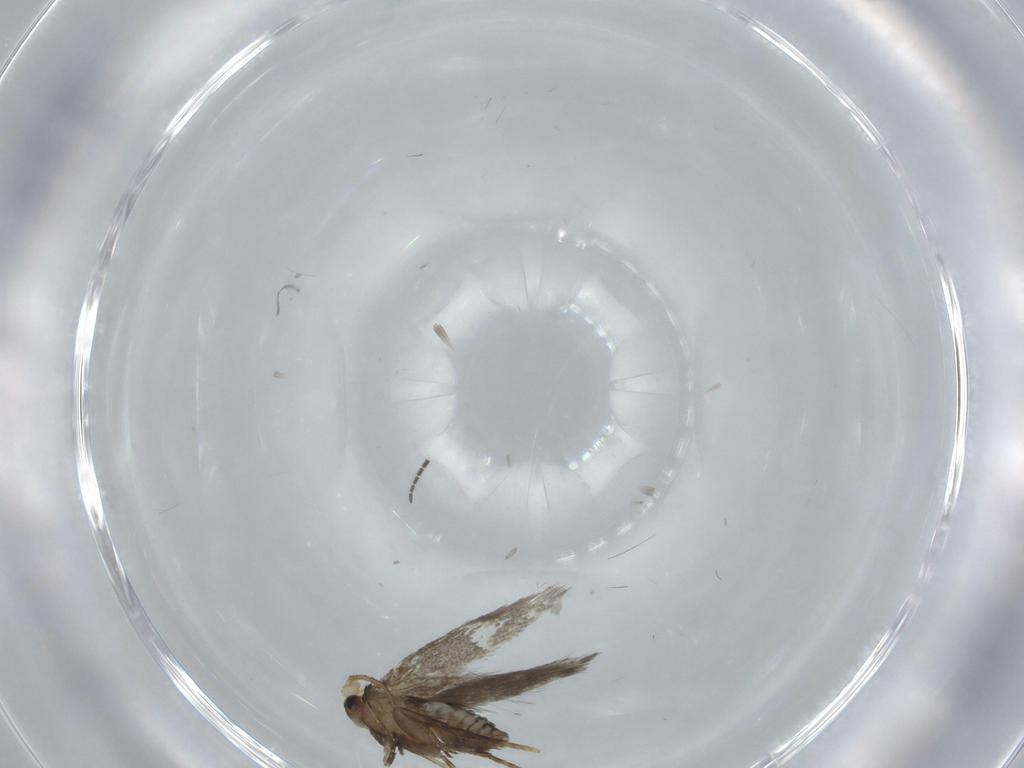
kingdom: Animalia
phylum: Arthropoda
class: Insecta
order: Lepidoptera
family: Nepticulidae
